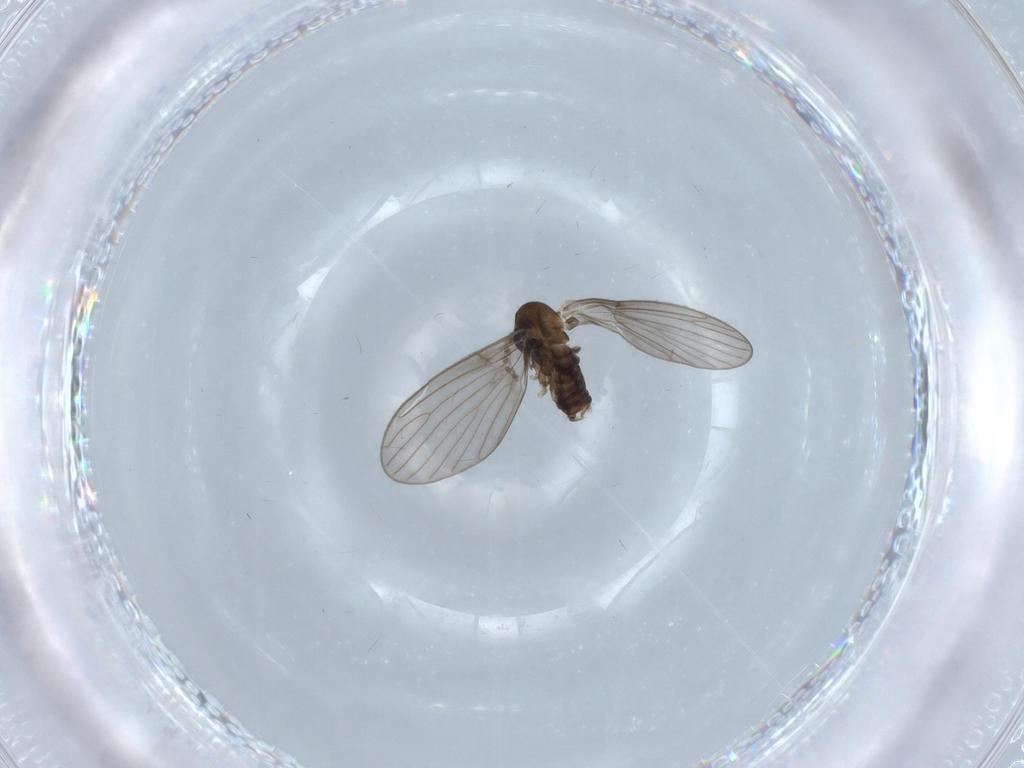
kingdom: Animalia
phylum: Arthropoda
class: Insecta
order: Diptera
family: Psychodidae
